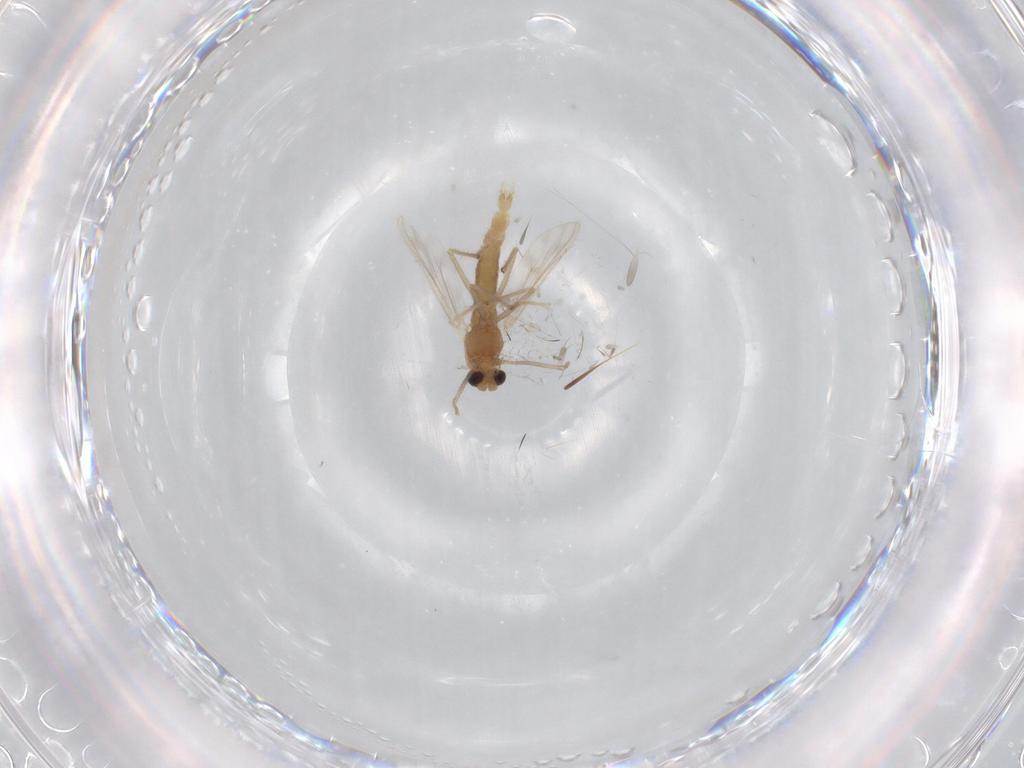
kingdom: Animalia
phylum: Arthropoda
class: Insecta
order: Diptera
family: Chironomidae
